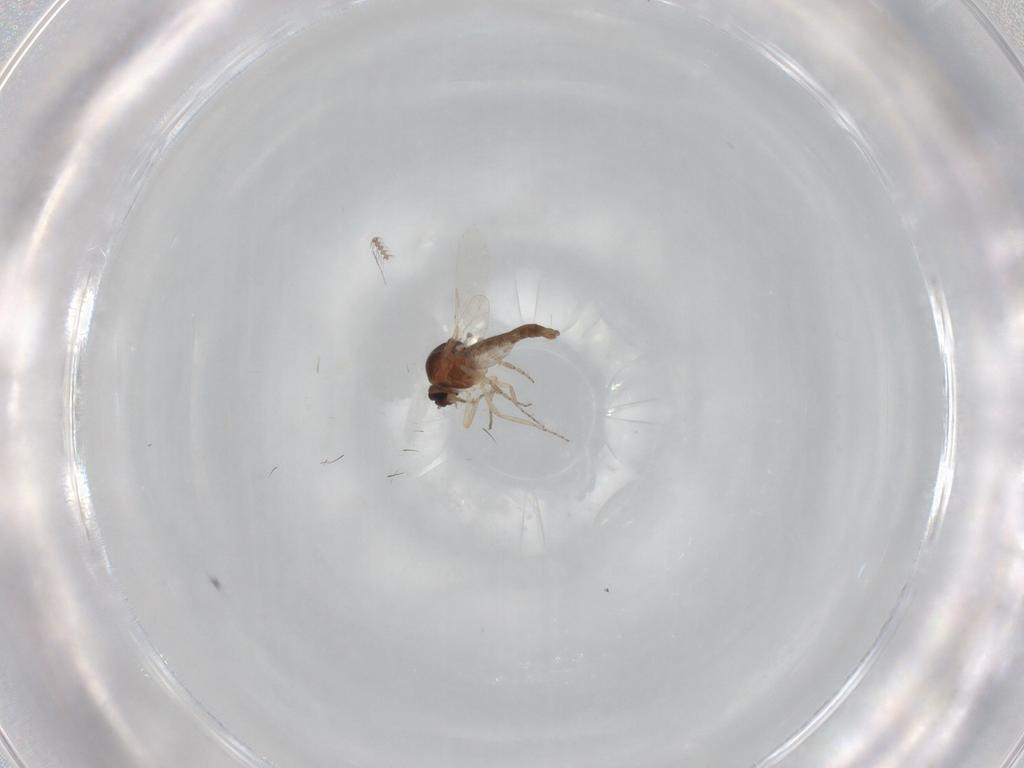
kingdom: Animalia
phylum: Arthropoda
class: Insecta
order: Diptera
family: Ceratopogonidae
